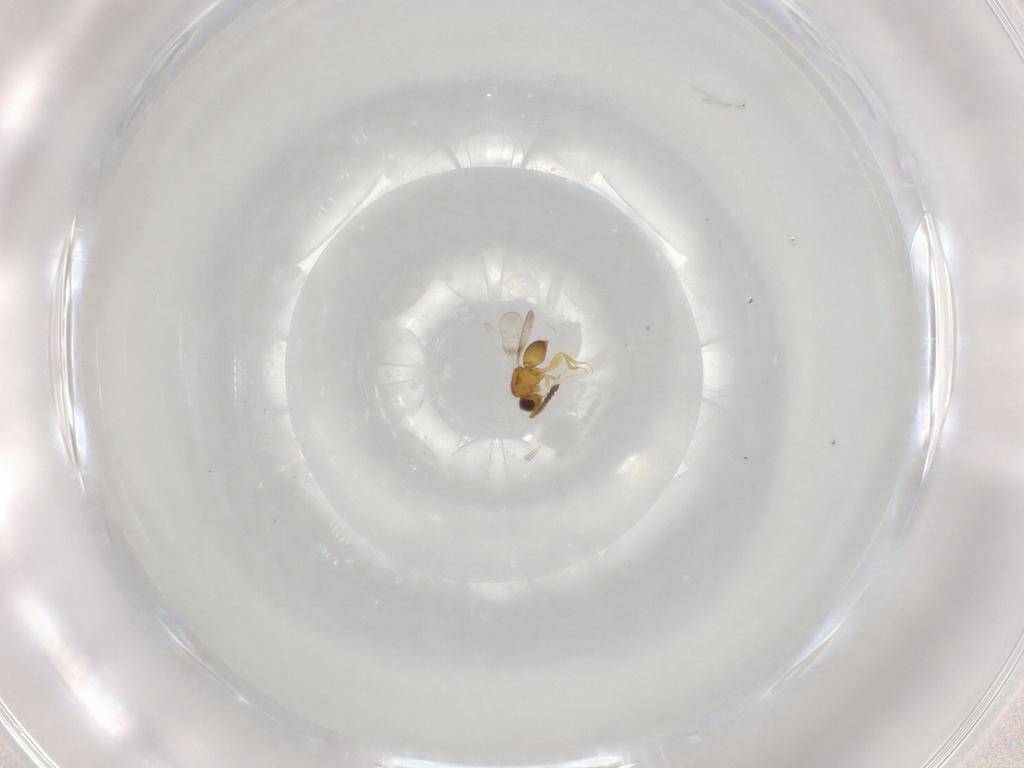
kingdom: Animalia
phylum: Arthropoda
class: Insecta
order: Hymenoptera
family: Ceraphronidae
